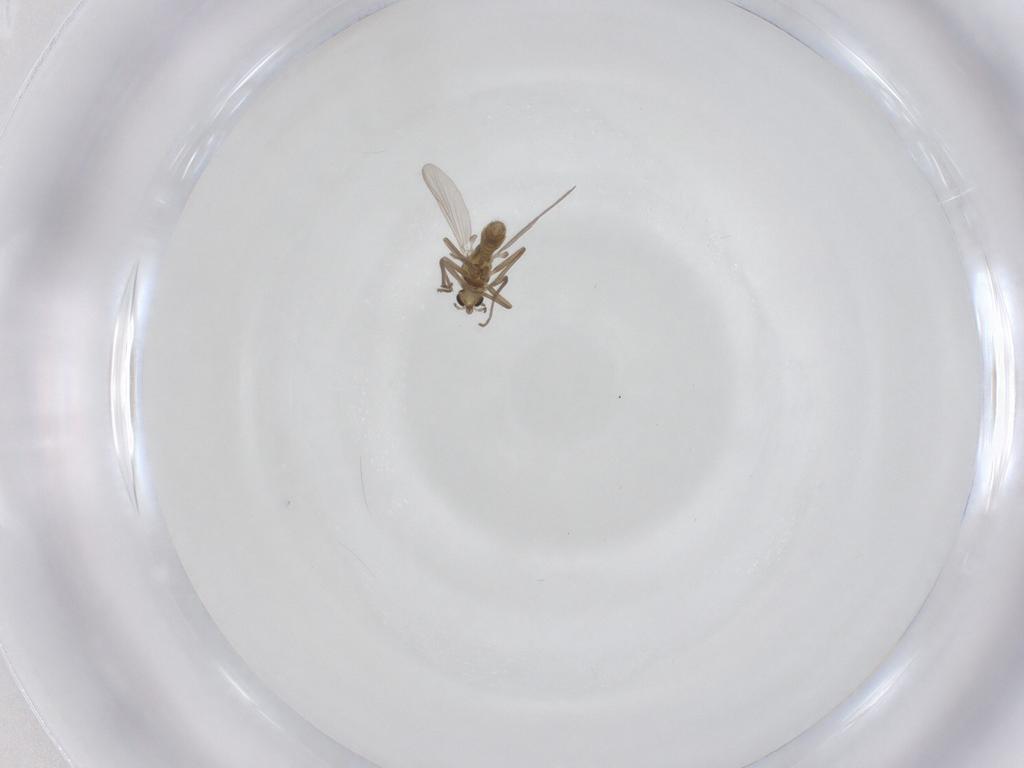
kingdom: Animalia
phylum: Arthropoda
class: Insecta
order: Diptera
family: Chironomidae
